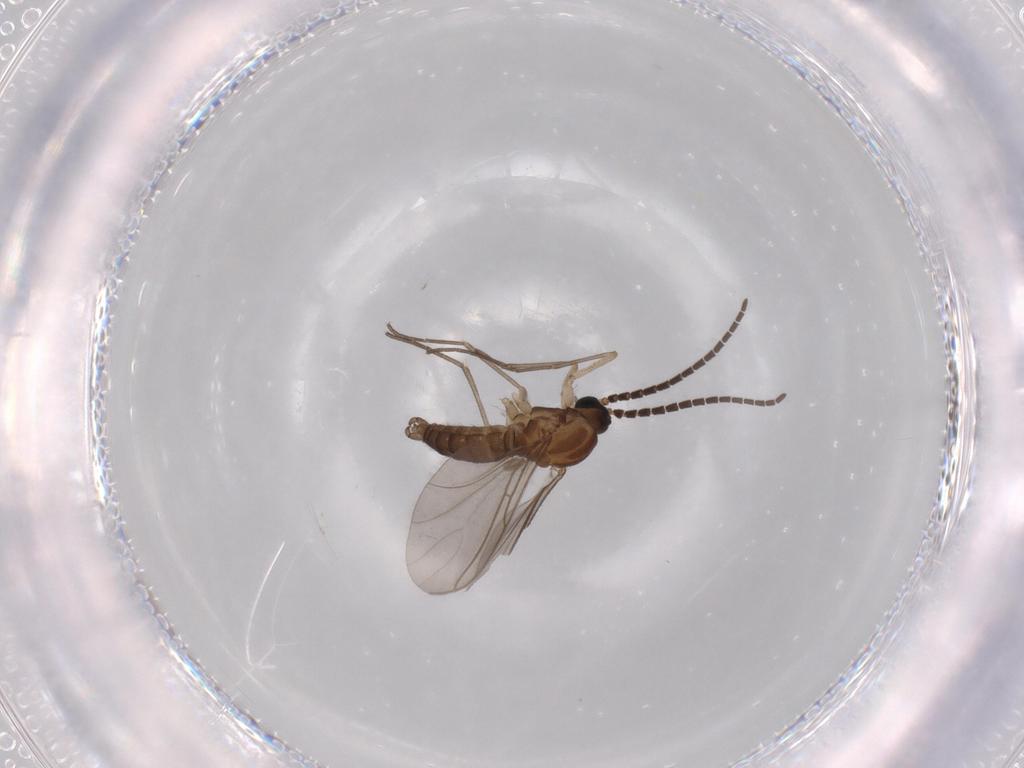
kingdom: Animalia
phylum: Arthropoda
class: Insecta
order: Diptera
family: Sciaridae
